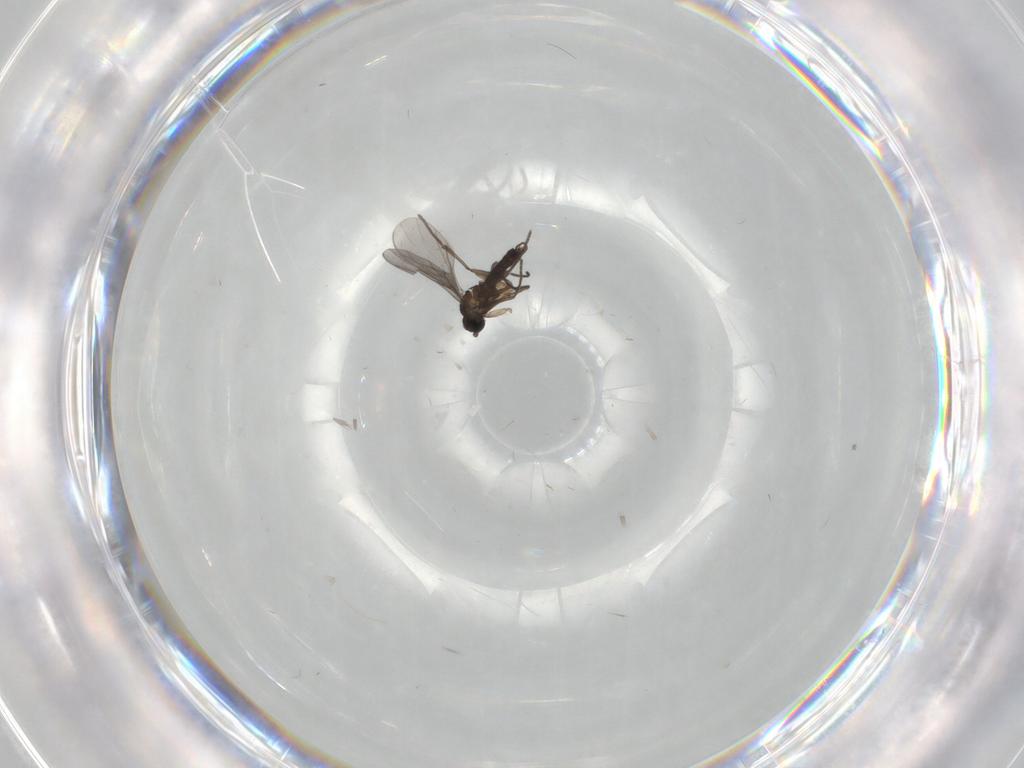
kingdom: Animalia
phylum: Arthropoda
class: Insecta
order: Diptera
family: Sciaridae
